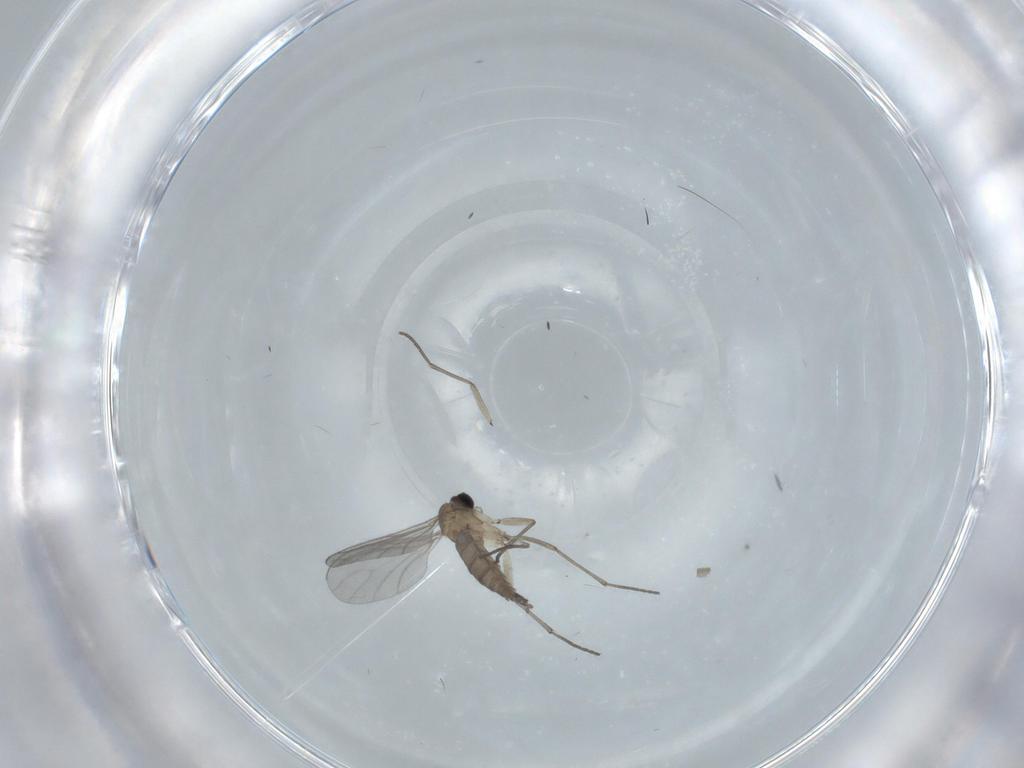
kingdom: Animalia
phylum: Arthropoda
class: Insecta
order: Diptera
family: Sciaridae
